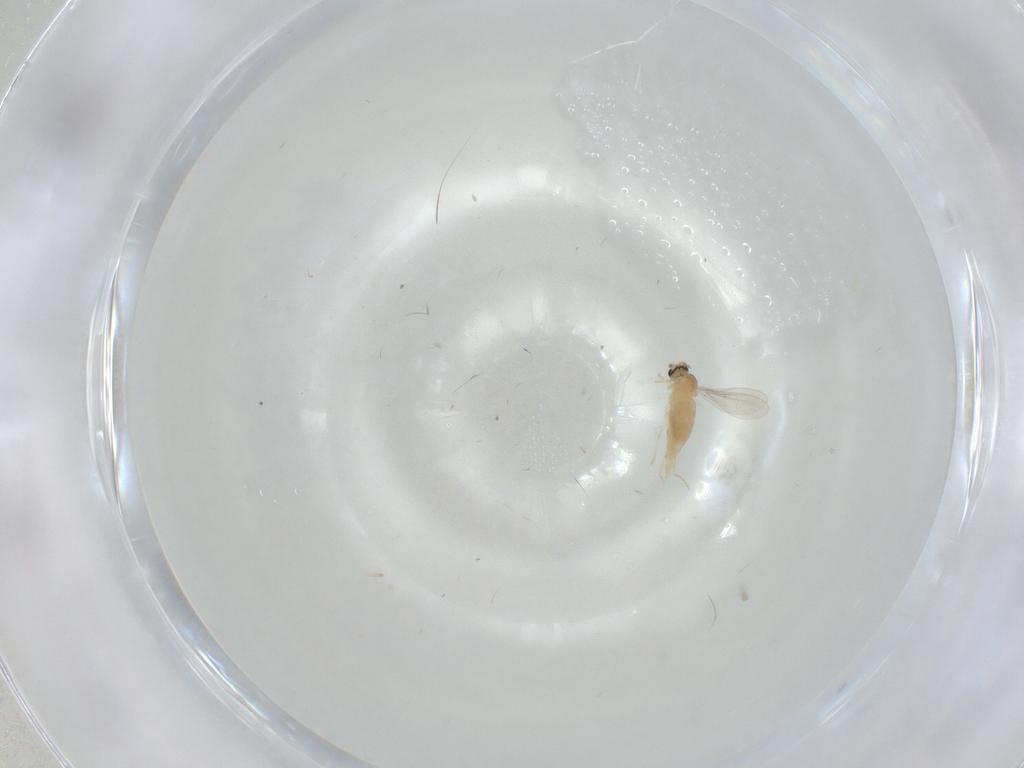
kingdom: Animalia
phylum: Arthropoda
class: Insecta
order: Diptera
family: Cecidomyiidae
